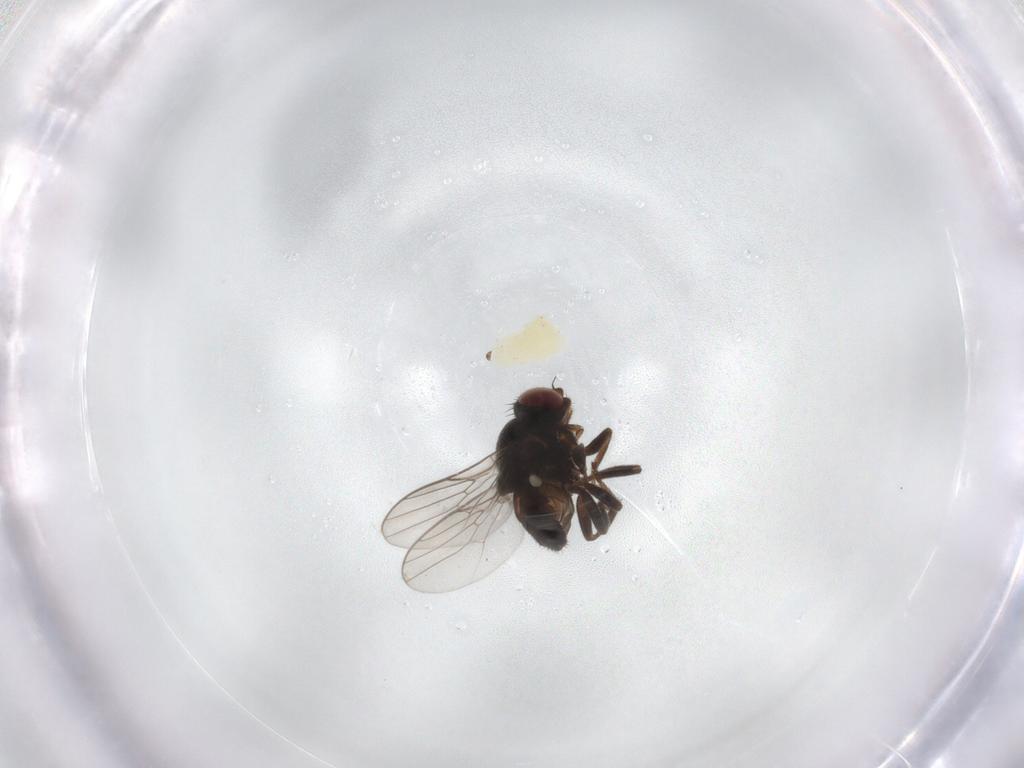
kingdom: Animalia
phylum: Arthropoda
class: Insecta
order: Diptera
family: Chloropidae
